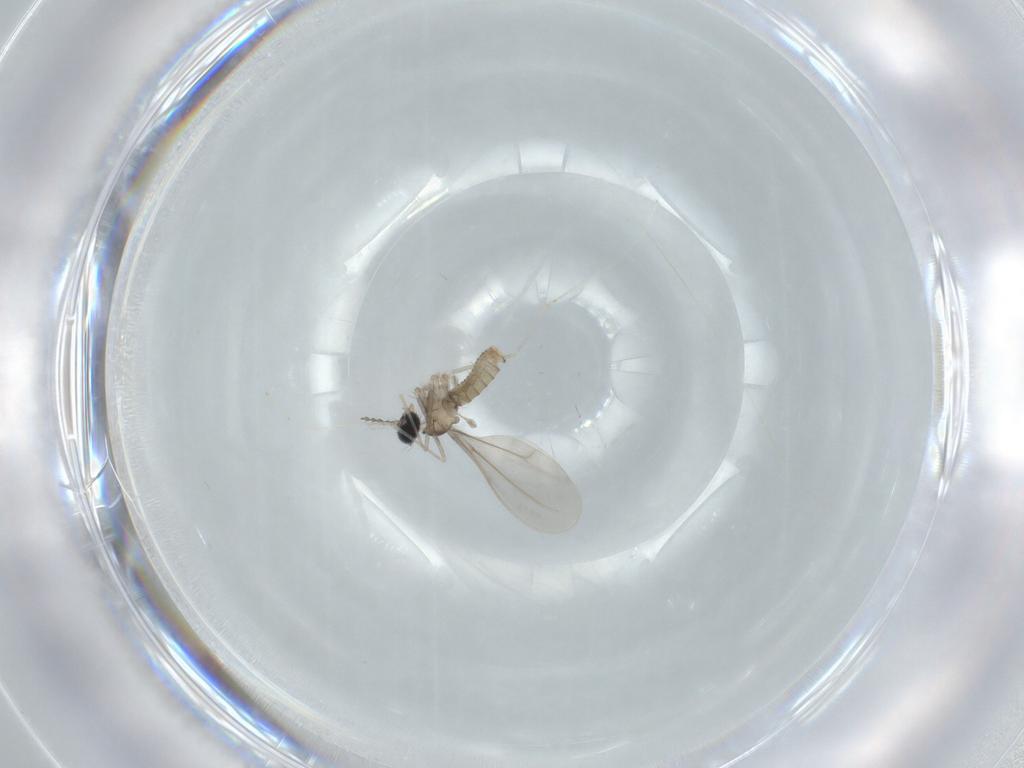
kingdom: Animalia
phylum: Arthropoda
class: Insecta
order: Diptera
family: Cecidomyiidae
